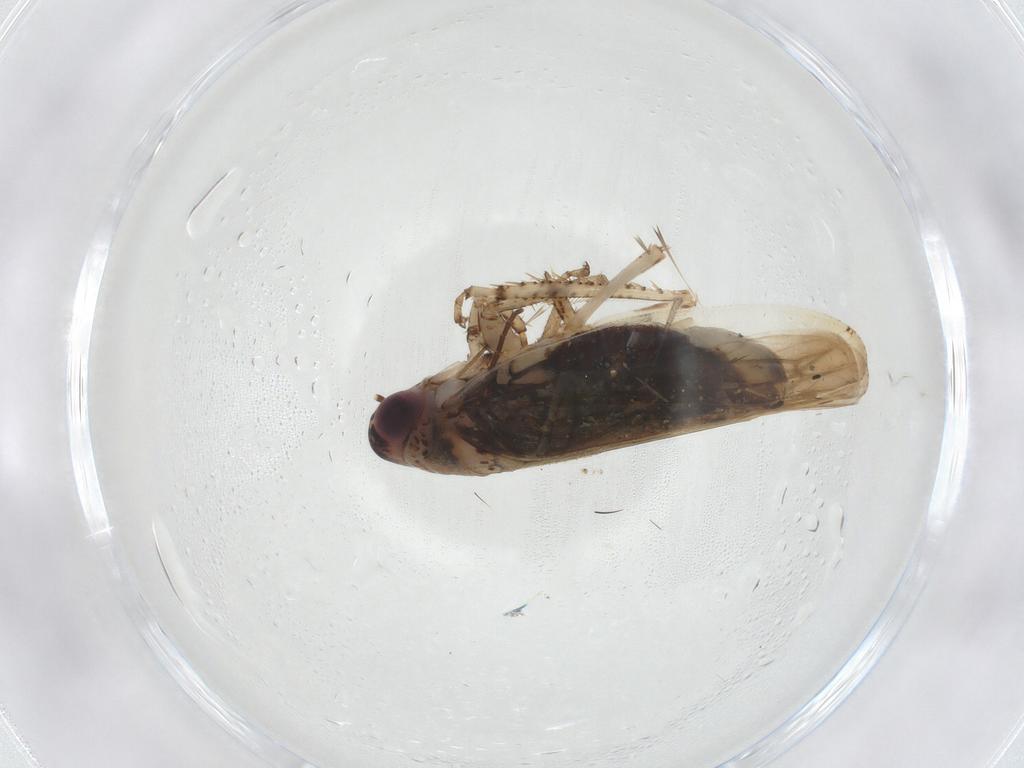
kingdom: Animalia
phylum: Arthropoda
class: Insecta
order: Hemiptera
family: Cicadellidae
